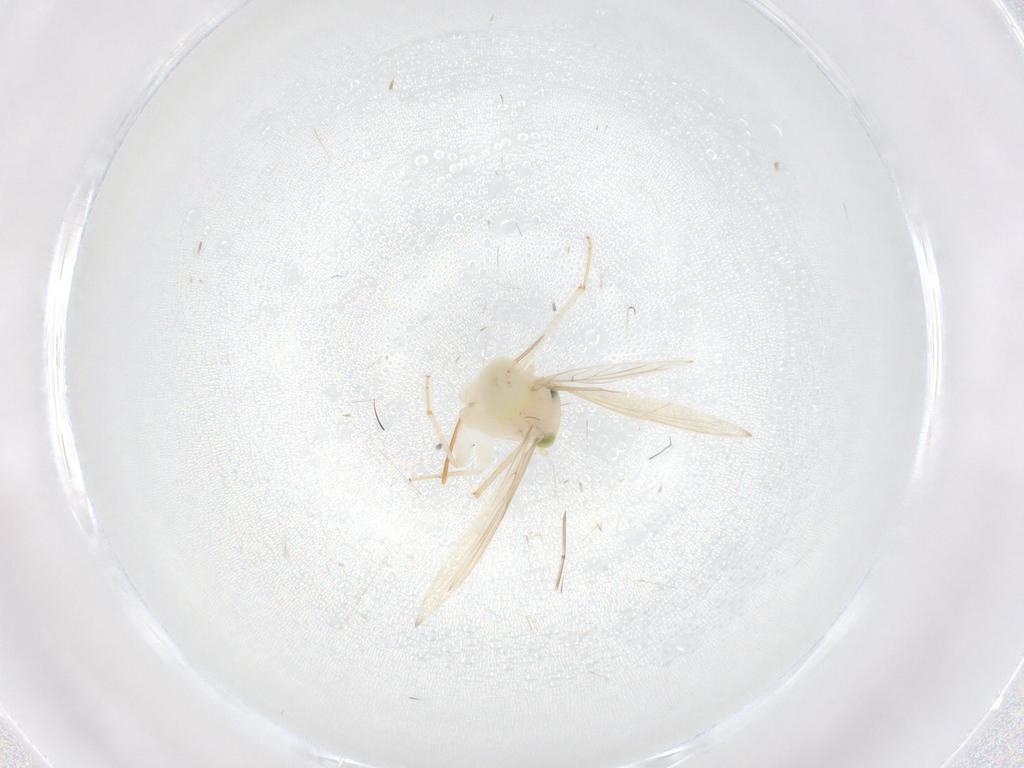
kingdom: Animalia
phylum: Arthropoda
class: Insecta
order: Psocodea
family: Lepidopsocidae
